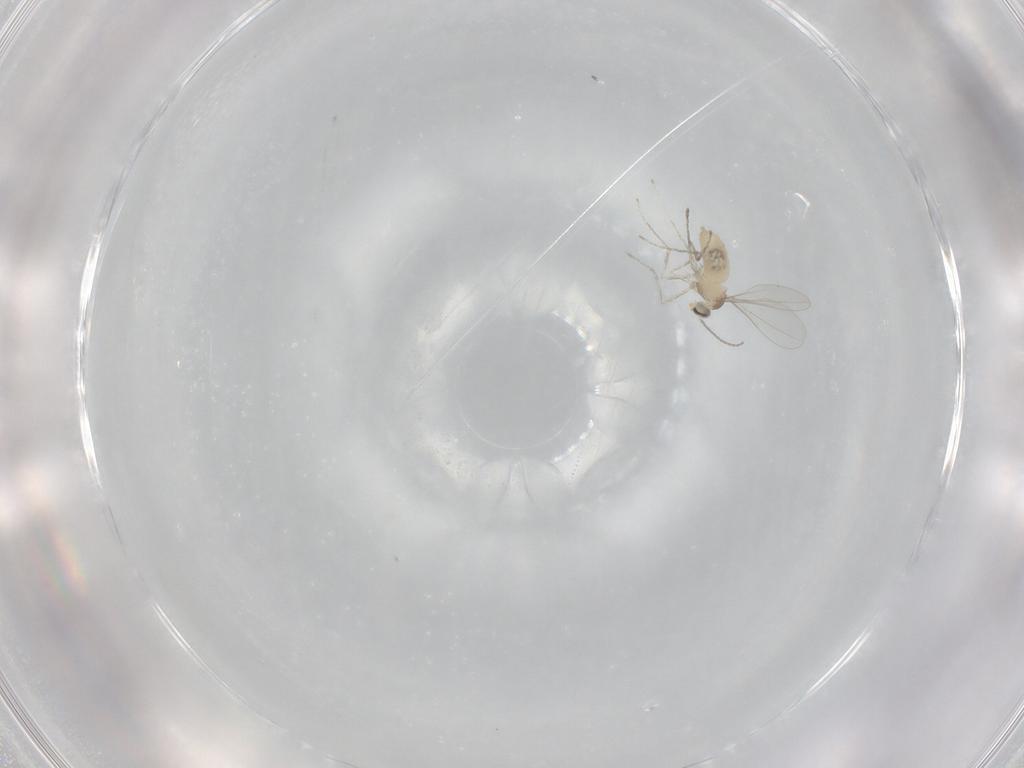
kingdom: Animalia
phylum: Arthropoda
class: Insecta
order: Diptera
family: Cecidomyiidae
